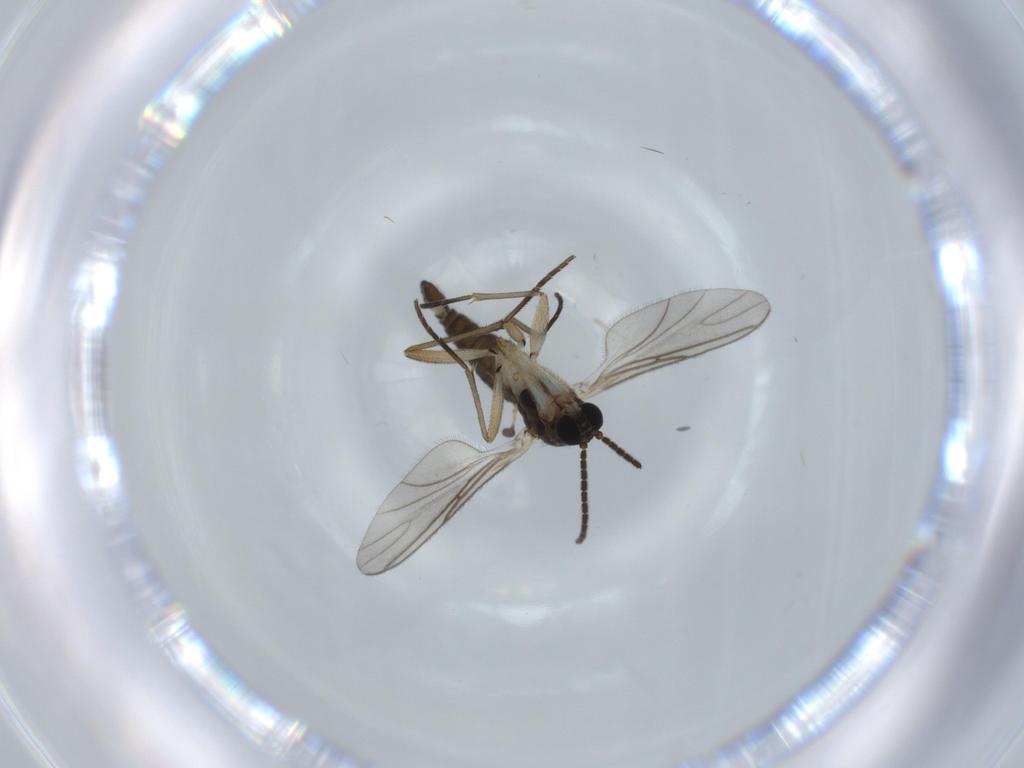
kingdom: Animalia
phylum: Arthropoda
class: Insecta
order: Diptera
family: Sciaridae
